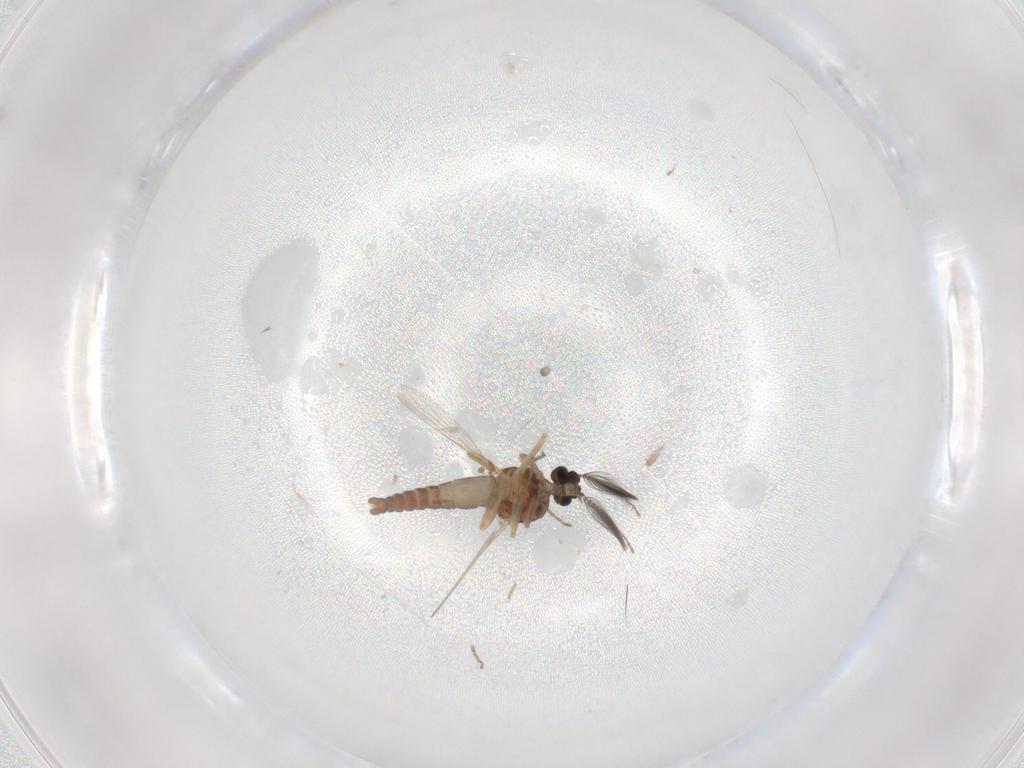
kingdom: Animalia
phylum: Arthropoda
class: Insecta
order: Diptera
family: Ceratopogonidae
